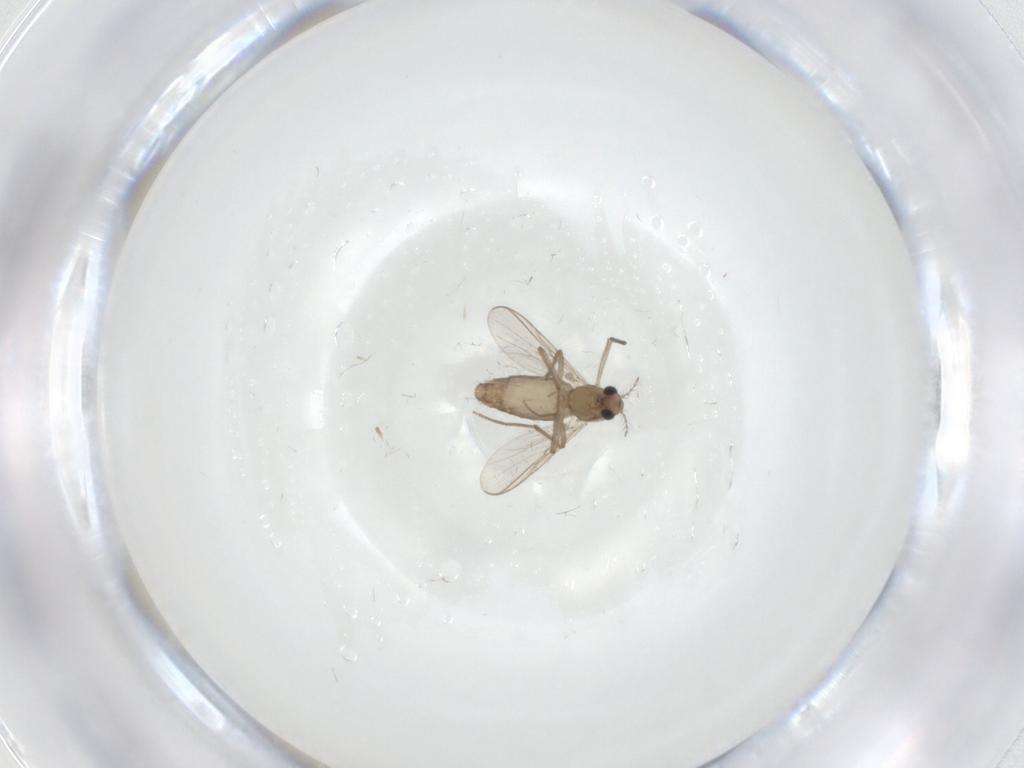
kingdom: Animalia
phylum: Arthropoda
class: Insecta
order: Diptera
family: Chironomidae
